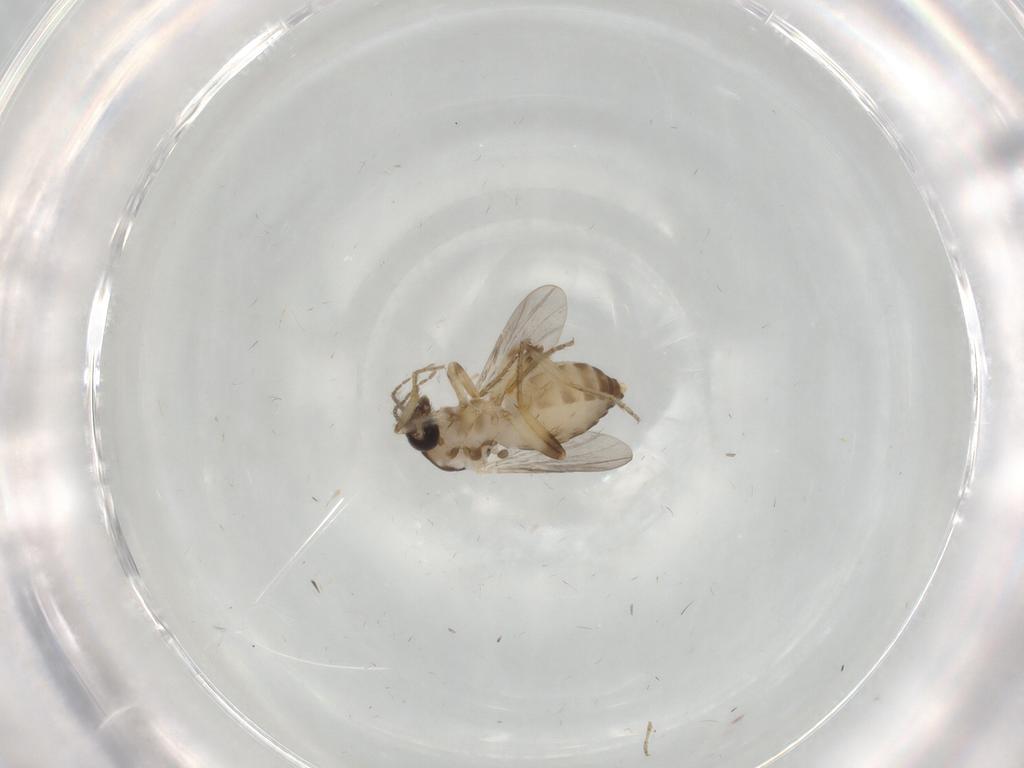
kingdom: Animalia
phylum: Arthropoda
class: Insecta
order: Diptera
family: Ceratopogonidae
